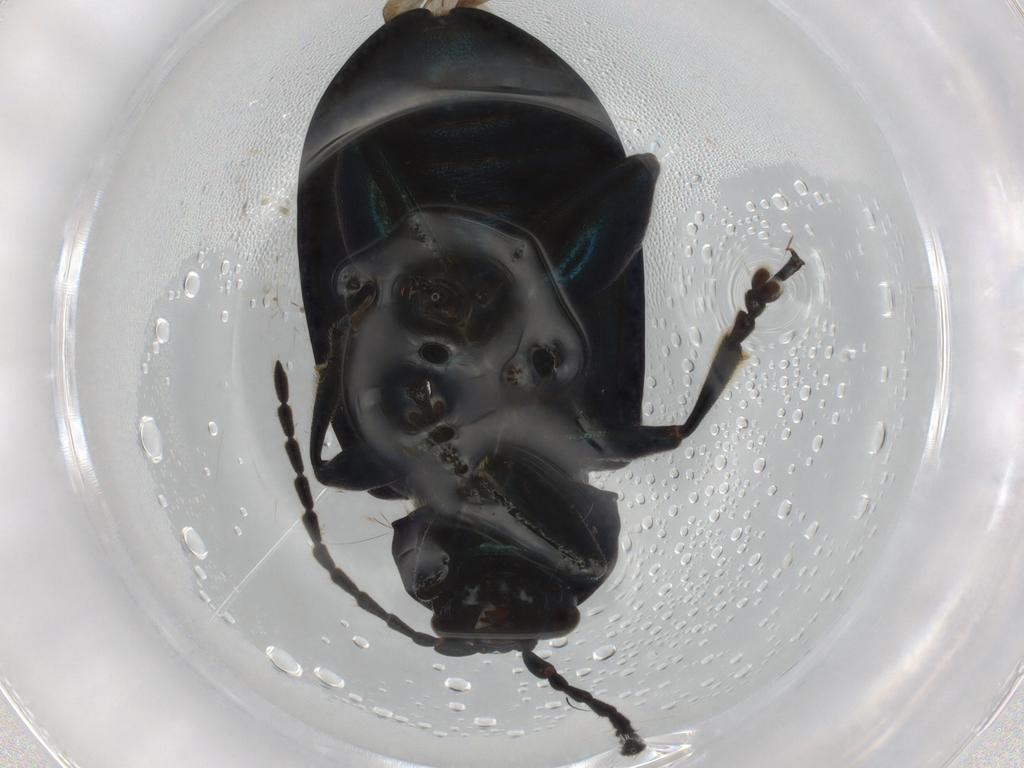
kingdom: Animalia
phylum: Arthropoda
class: Insecta
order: Coleoptera
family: Chrysomelidae
